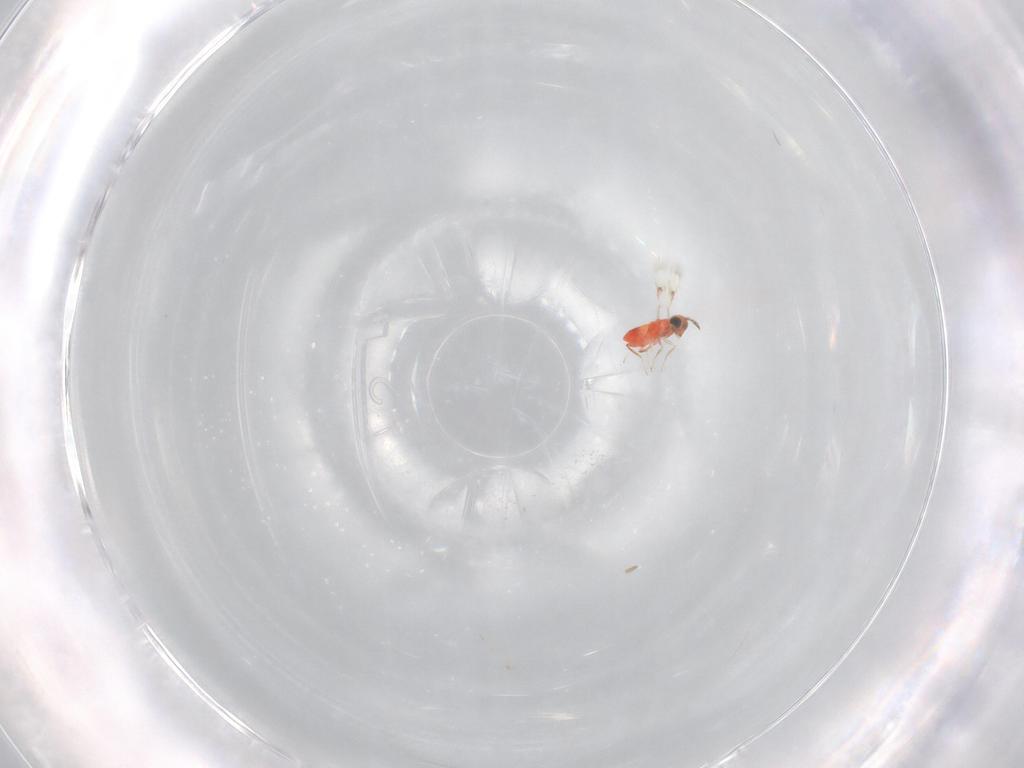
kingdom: Animalia
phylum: Arthropoda
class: Insecta
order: Hymenoptera
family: Trichogrammatidae
